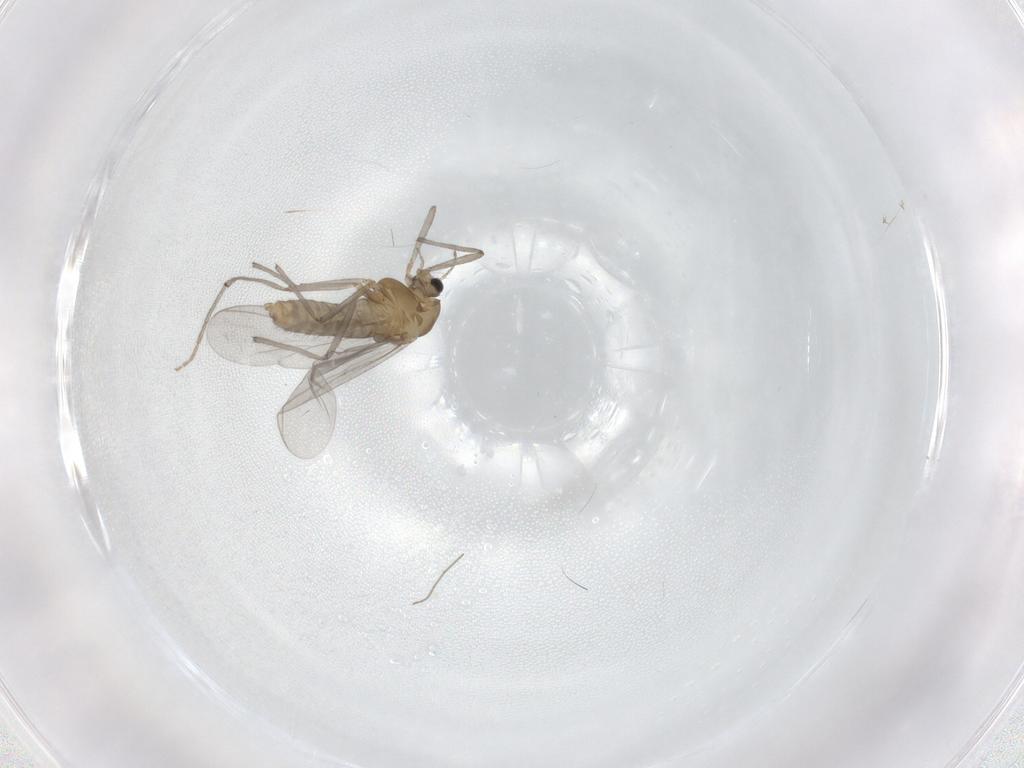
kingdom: Animalia
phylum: Arthropoda
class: Insecta
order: Diptera
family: Chironomidae
